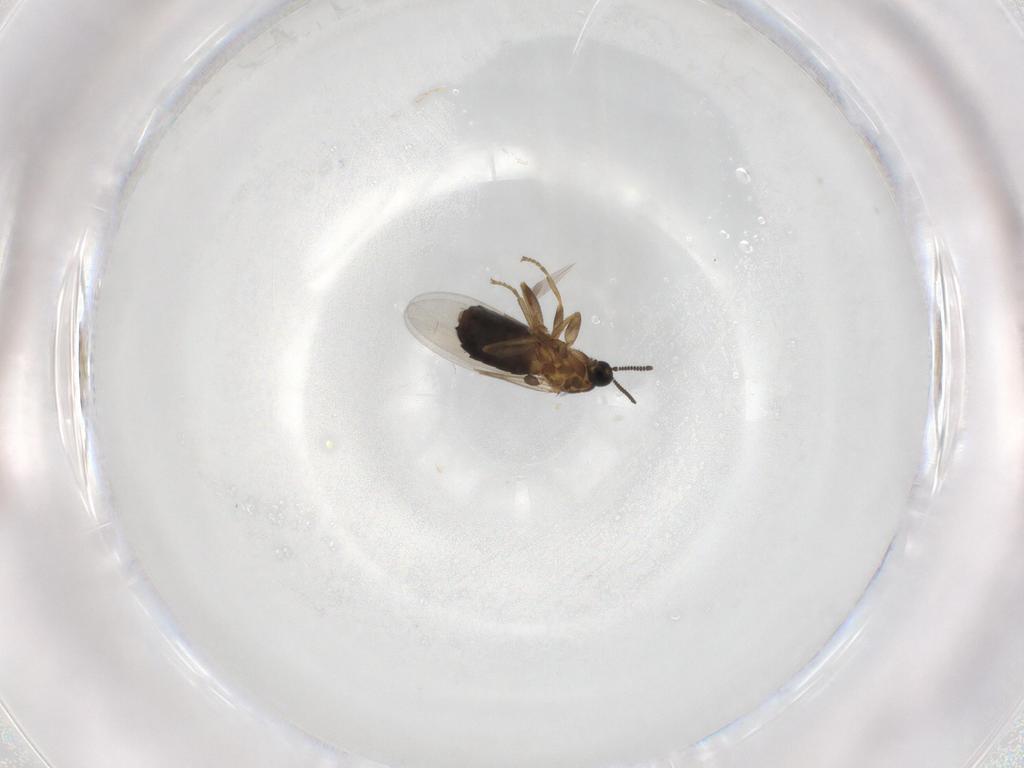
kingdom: Animalia
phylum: Arthropoda
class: Insecta
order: Diptera
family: Scatopsidae
